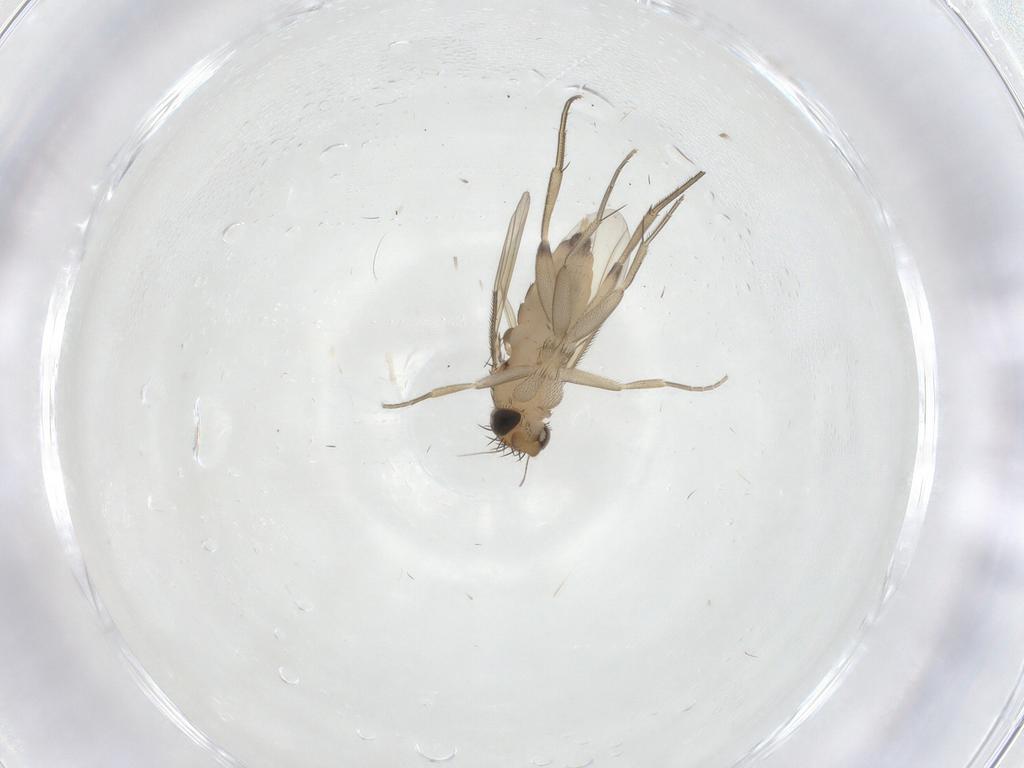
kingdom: Animalia
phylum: Arthropoda
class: Insecta
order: Diptera
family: Phoridae
